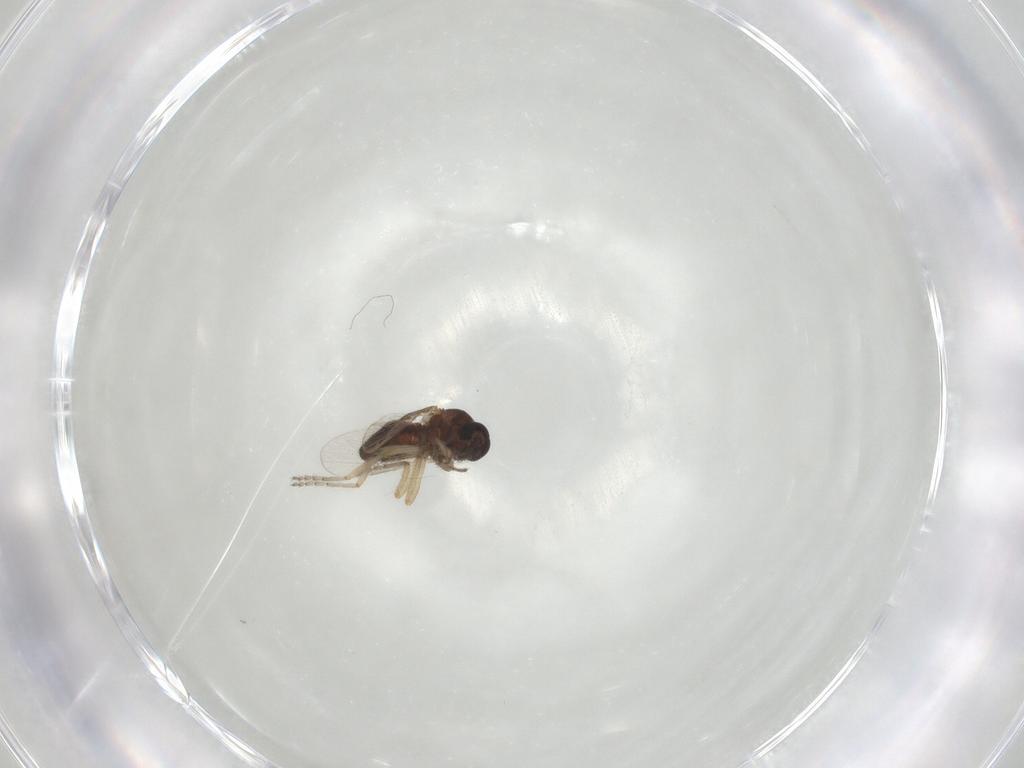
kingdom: Animalia
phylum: Arthropoda
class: Insecta
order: Diptera
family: Ceratopogonidae
